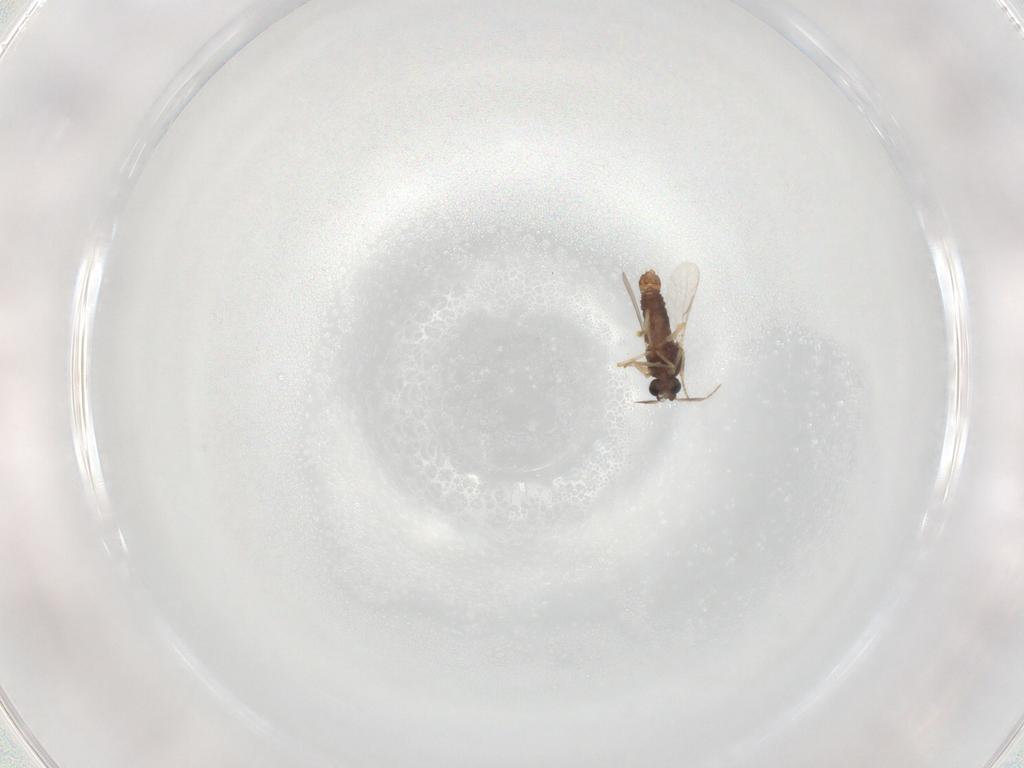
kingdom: Animalia
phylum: Arthropoda
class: Insecta
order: Diptera
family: Ceratopogonidae
